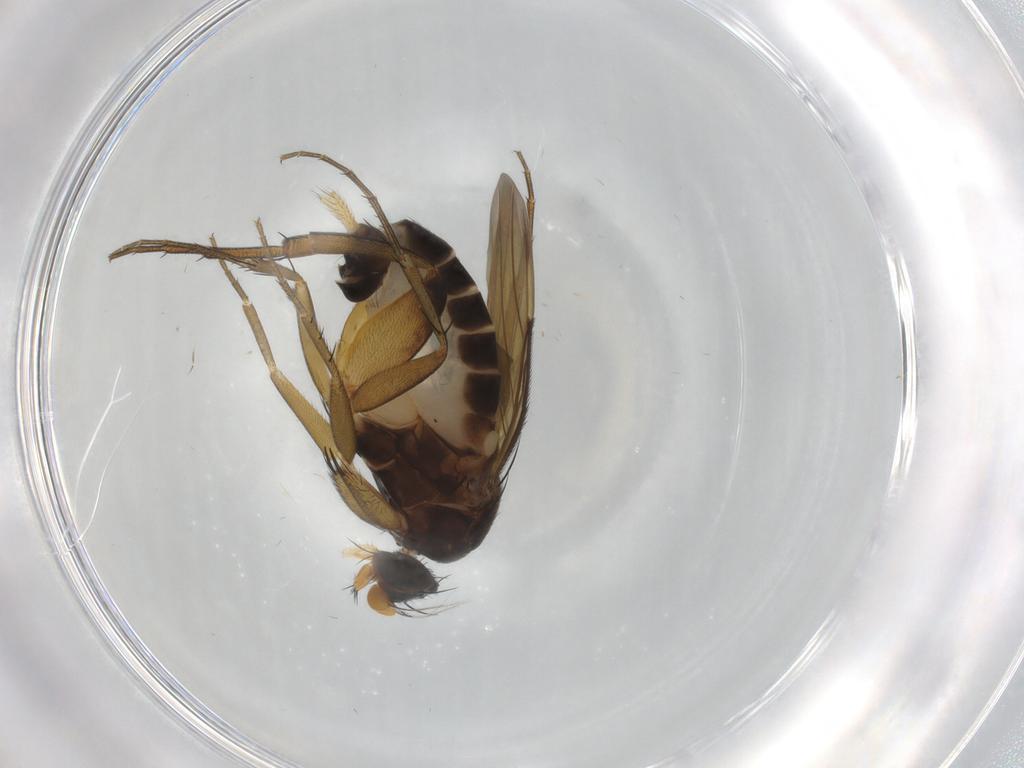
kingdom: Animalia
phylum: Arthropoda
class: Insecta
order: Diptera
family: Phoridae
